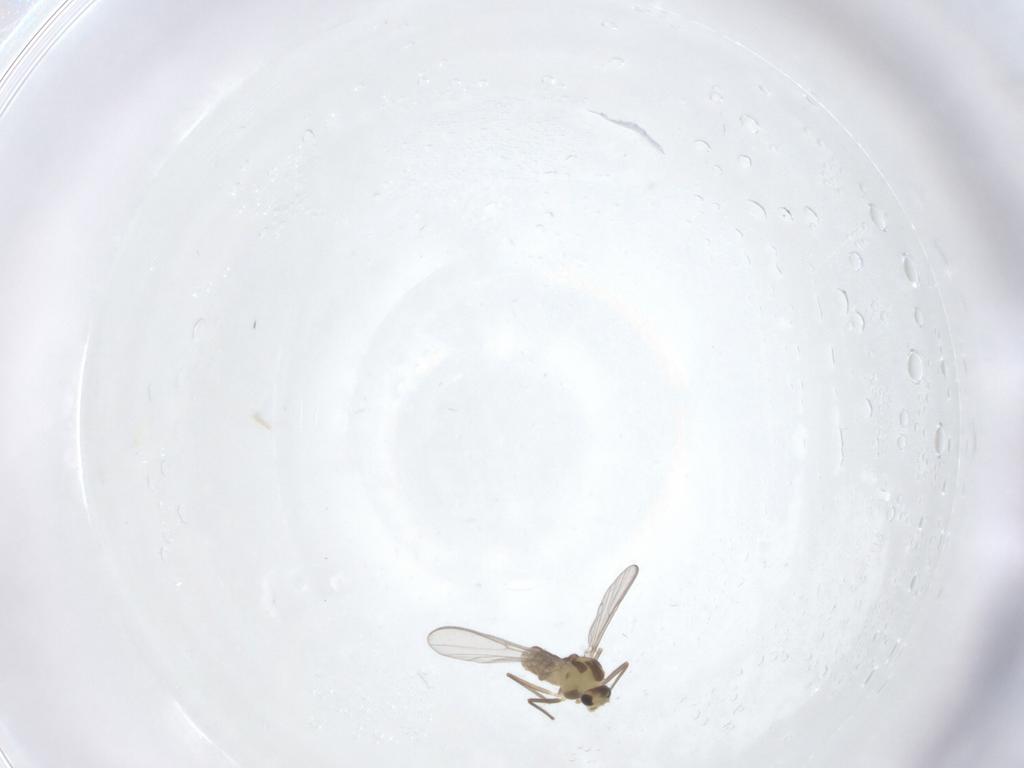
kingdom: Animalia
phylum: Arthropoda
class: Insecta
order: Diptera
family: Chironomidae
